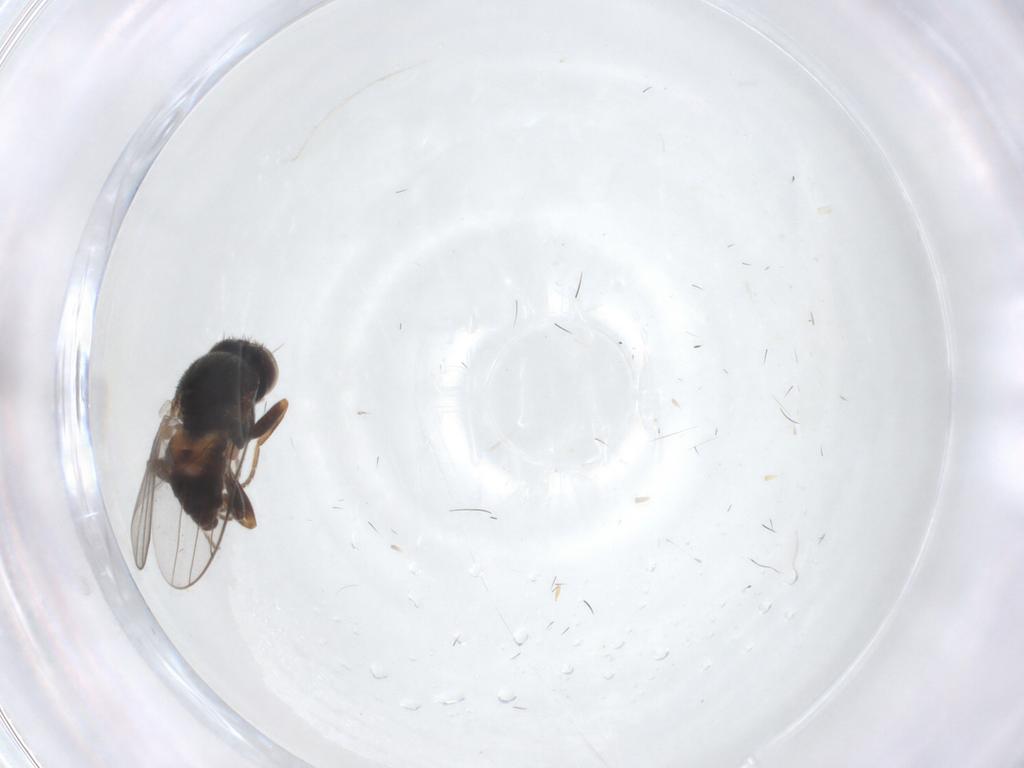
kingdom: Animalia
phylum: Arthropoda
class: Insecta
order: Diptera
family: Chloropidae
